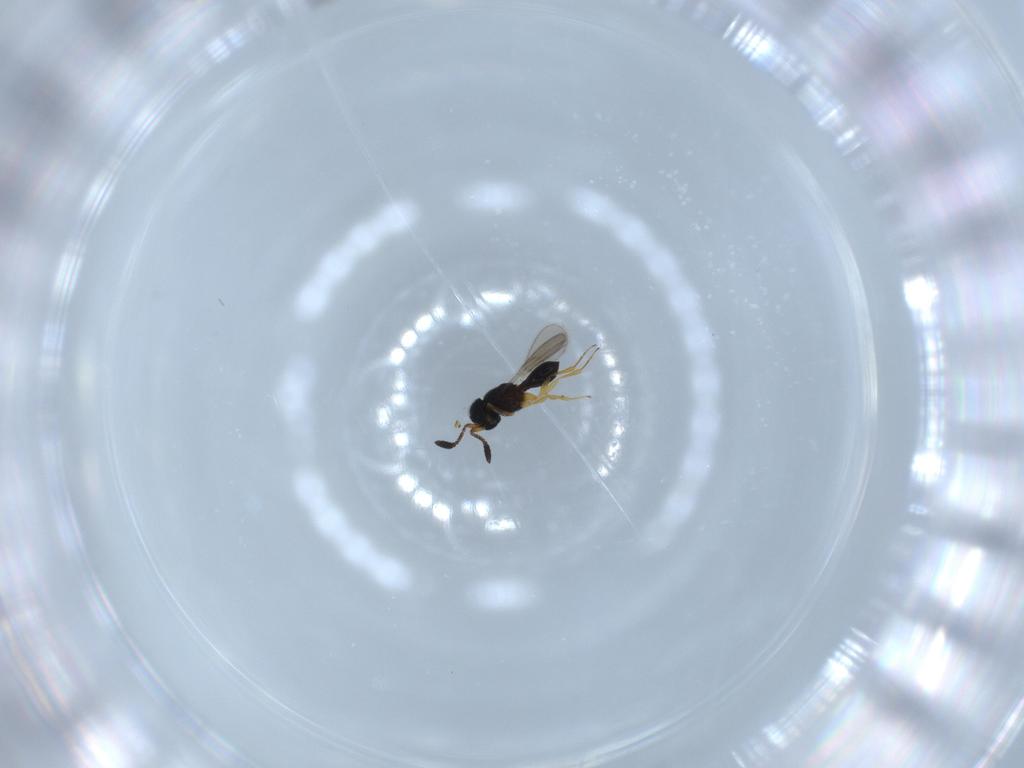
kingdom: Animalia
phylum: Arthropoda
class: Insecta
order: Hymenoptera
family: Scelionidae
